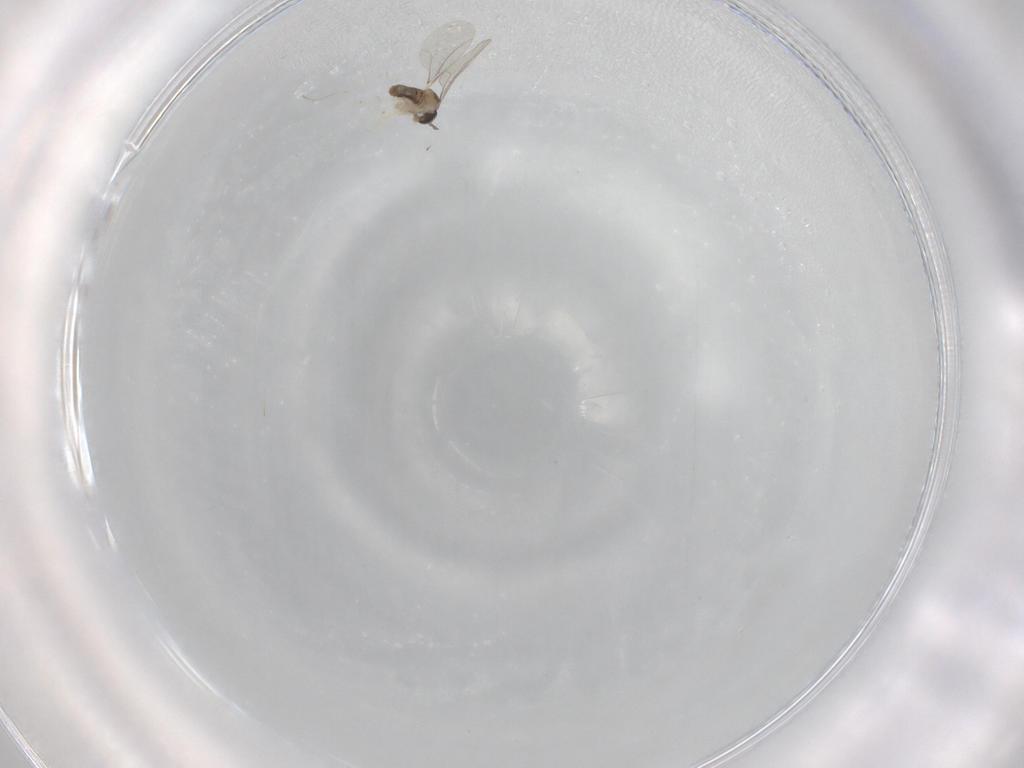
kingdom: Animalia
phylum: Arthropoda
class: Insecta
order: Diptera
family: Cecidomyiidae
